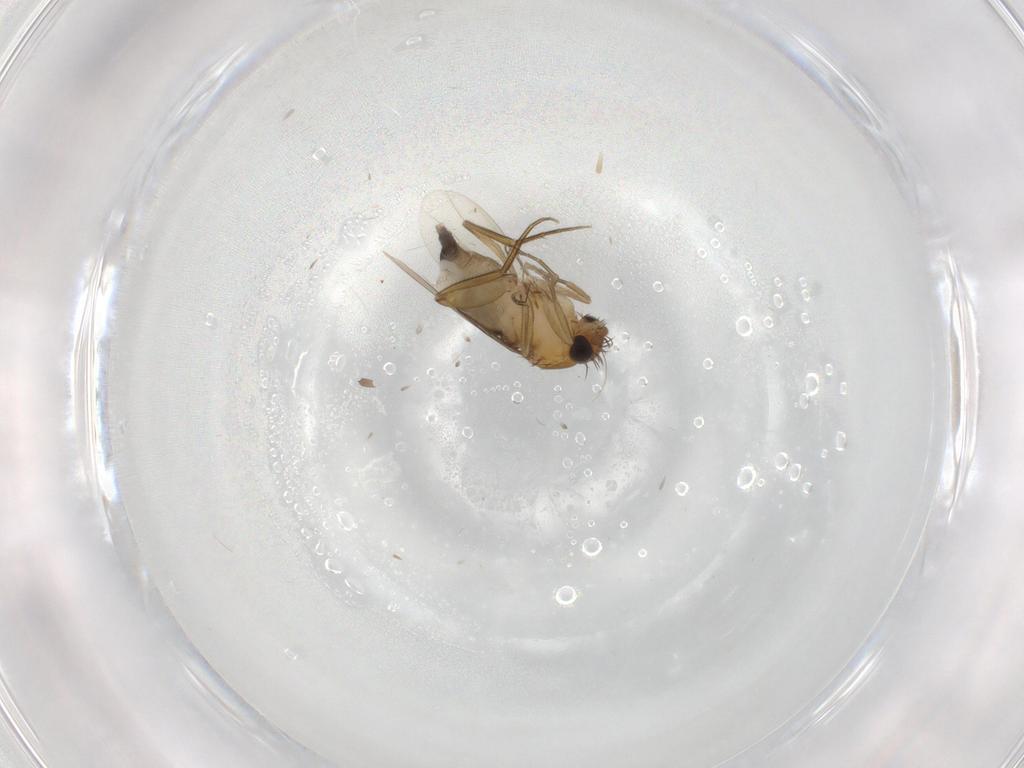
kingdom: Animalia
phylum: Arthropoda
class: Insecta
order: Diptera
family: Phoridae
